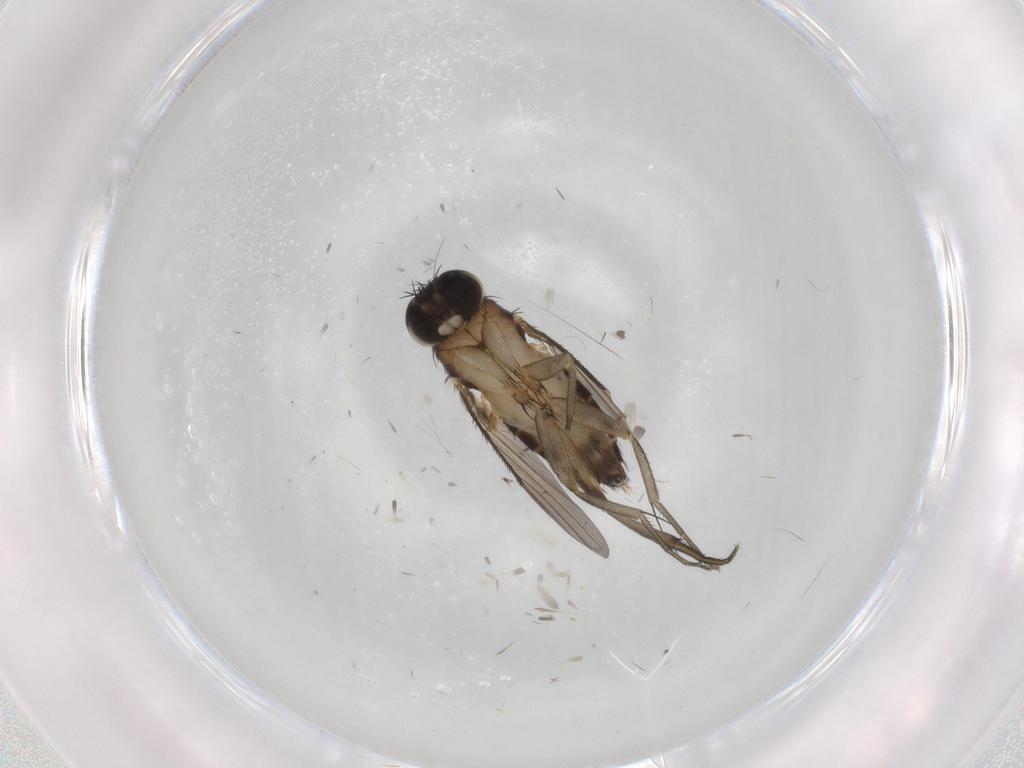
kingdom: Animalia
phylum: Arthropoda
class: Insecta
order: Diptera
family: Phoridae
